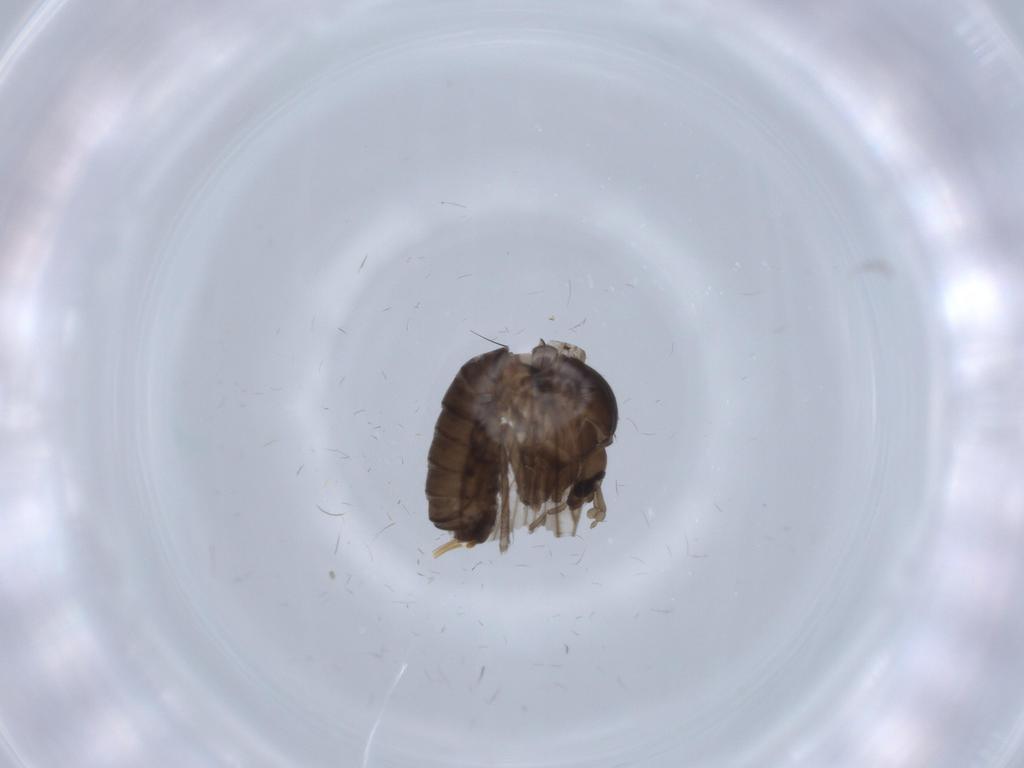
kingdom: Animalia
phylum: Arthropoda
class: Insecta
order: Diptera
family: Psychodidae
